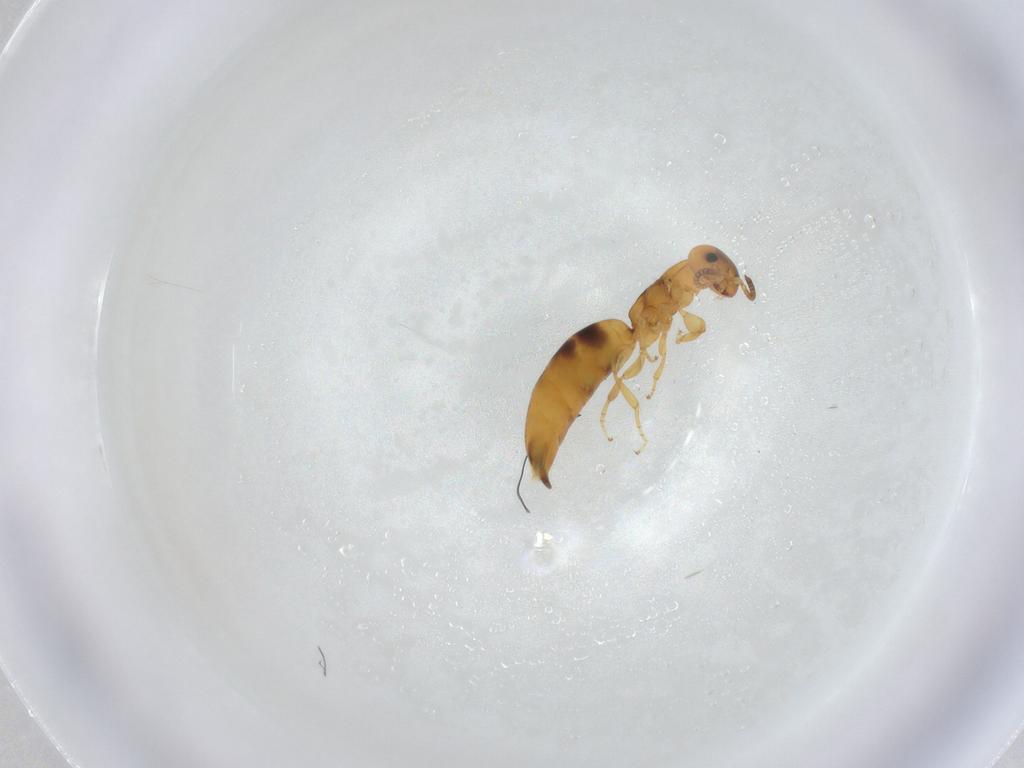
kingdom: Animalia
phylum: Arthropoda
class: Insecta
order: Hymenoptera
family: Bethylidae
